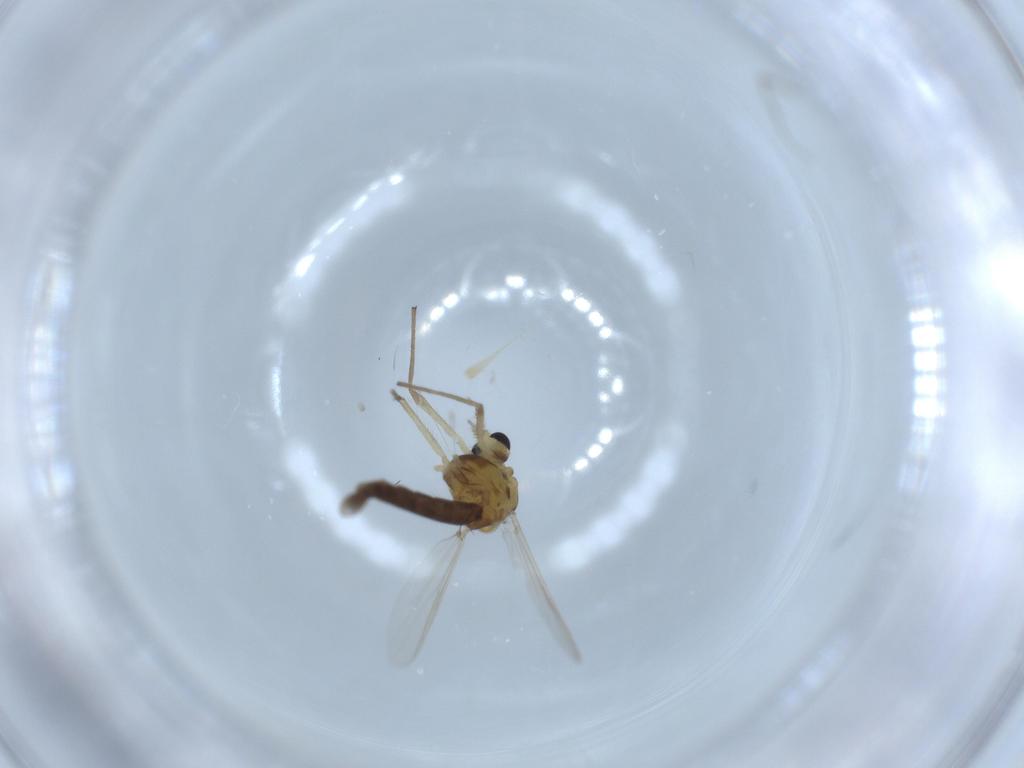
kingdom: Animalia
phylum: Arthropoda
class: Insecta
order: Diptera
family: Chironomidae
